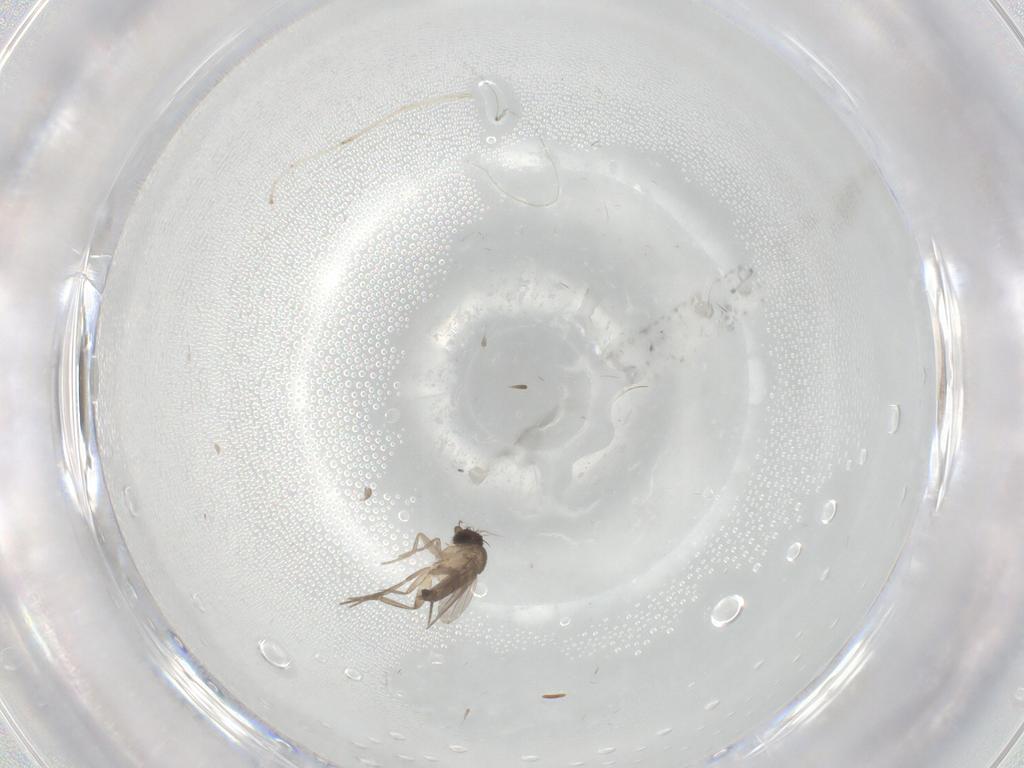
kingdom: Animalia
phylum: Arthropoda
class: Insecta
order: Diptera
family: Phoridae
